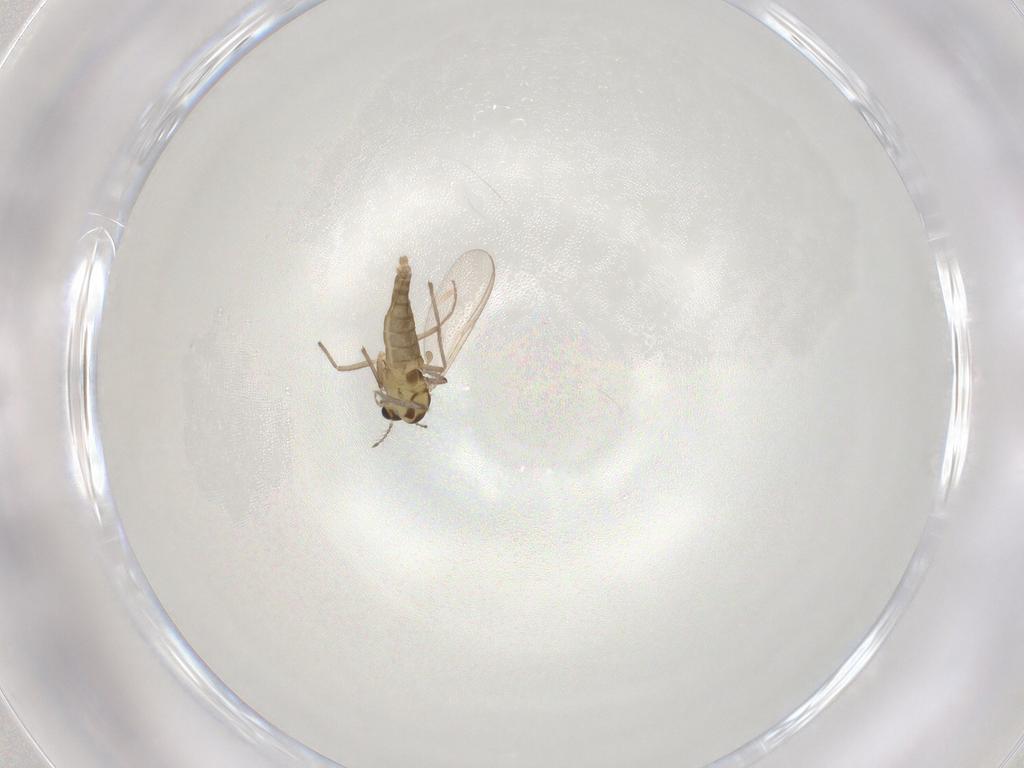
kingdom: Animalia
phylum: Arthropoda
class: Insecta
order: Diptera
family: Chironomidae
